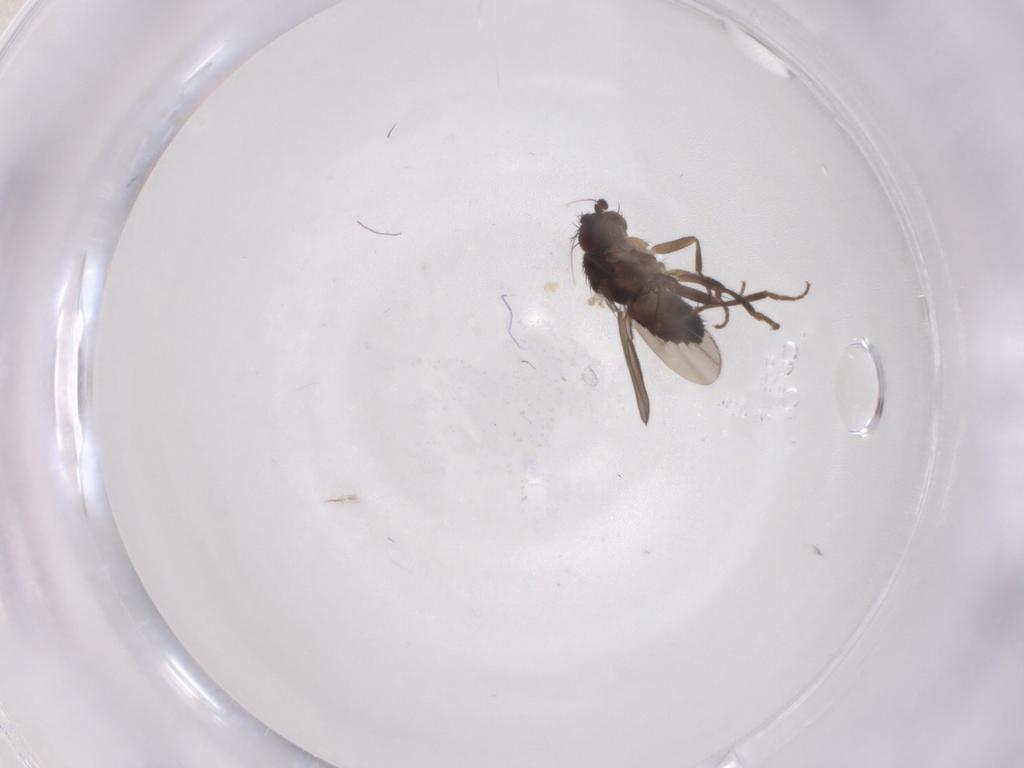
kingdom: Animalia
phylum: Arthropoda
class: Insecta
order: Diptera
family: Sphaeroceridae
